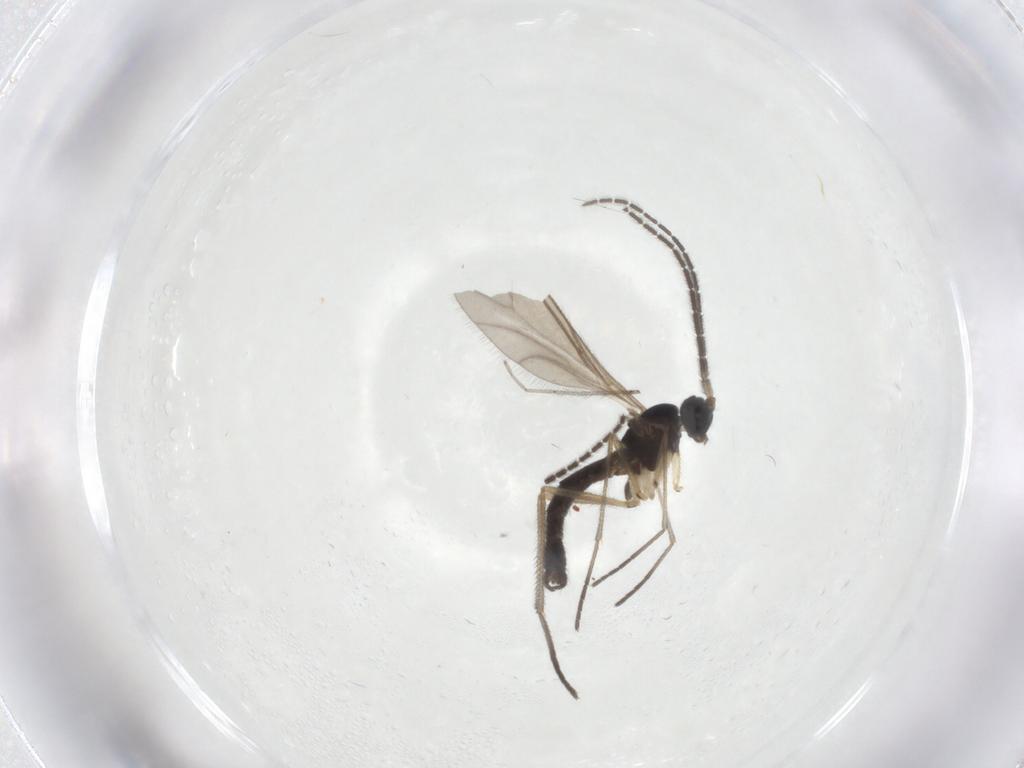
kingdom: Animalia
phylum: Arthropoda
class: Insecta
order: Diptera
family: Sciaridae
